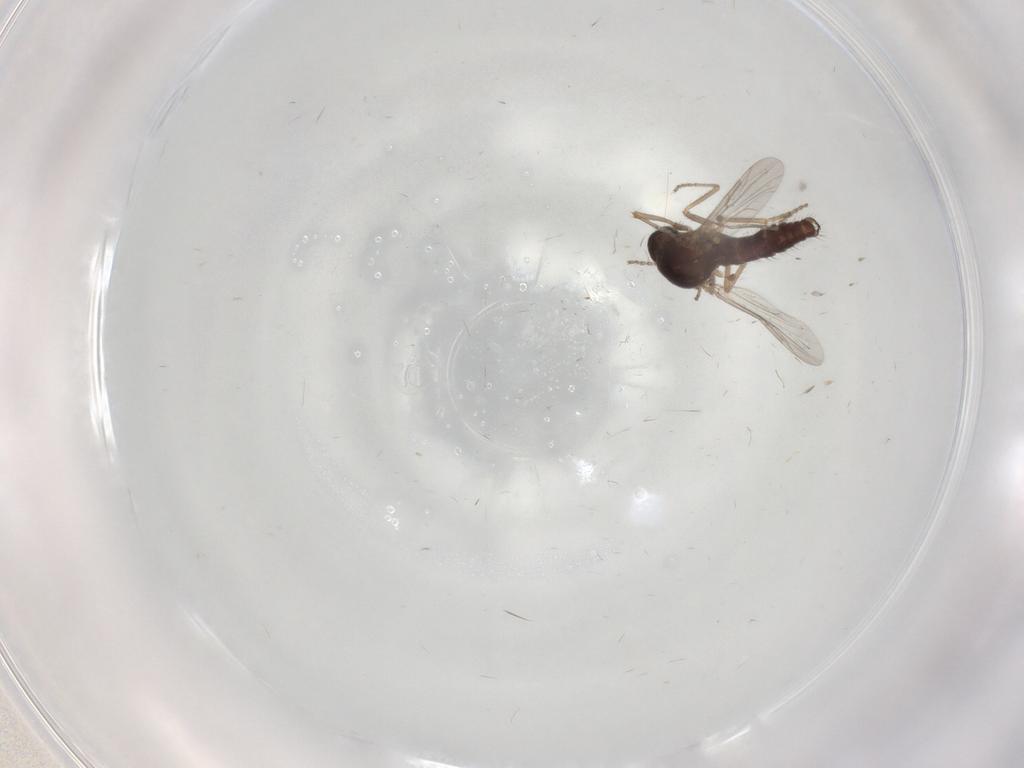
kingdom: Animalia
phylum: Arthropoda
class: Insecta
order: Diptera
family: Ceratopogonidae
